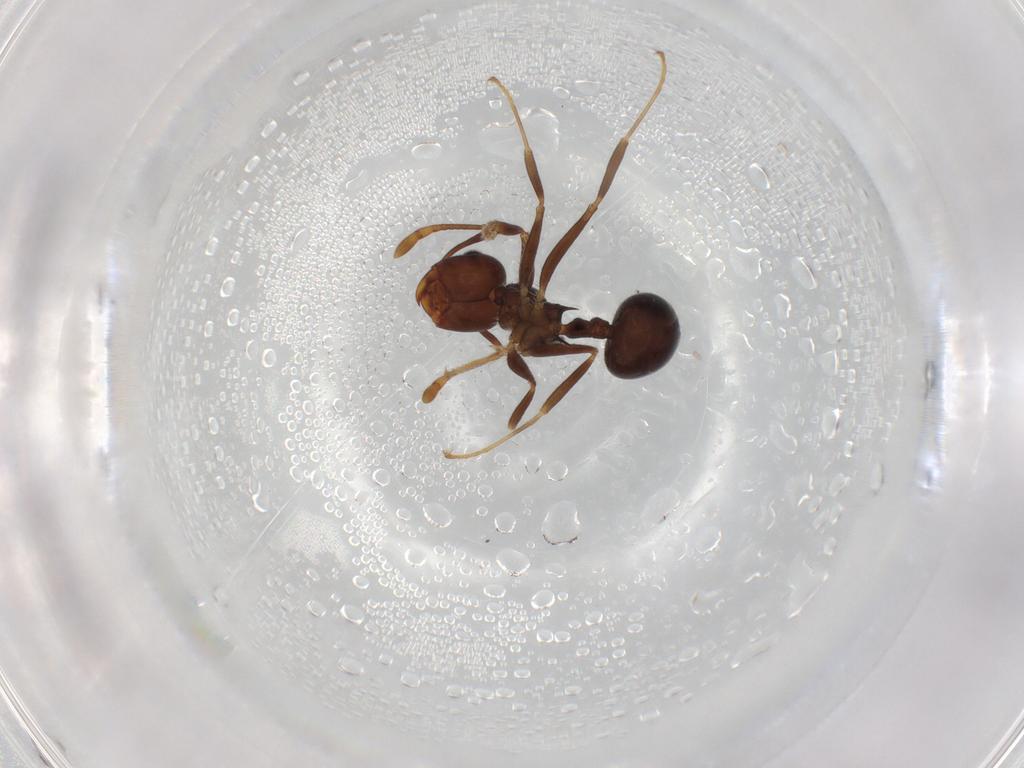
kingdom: Animalia
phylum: Arthropoda
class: Insecta
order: Hymenoptera
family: Formicidae
